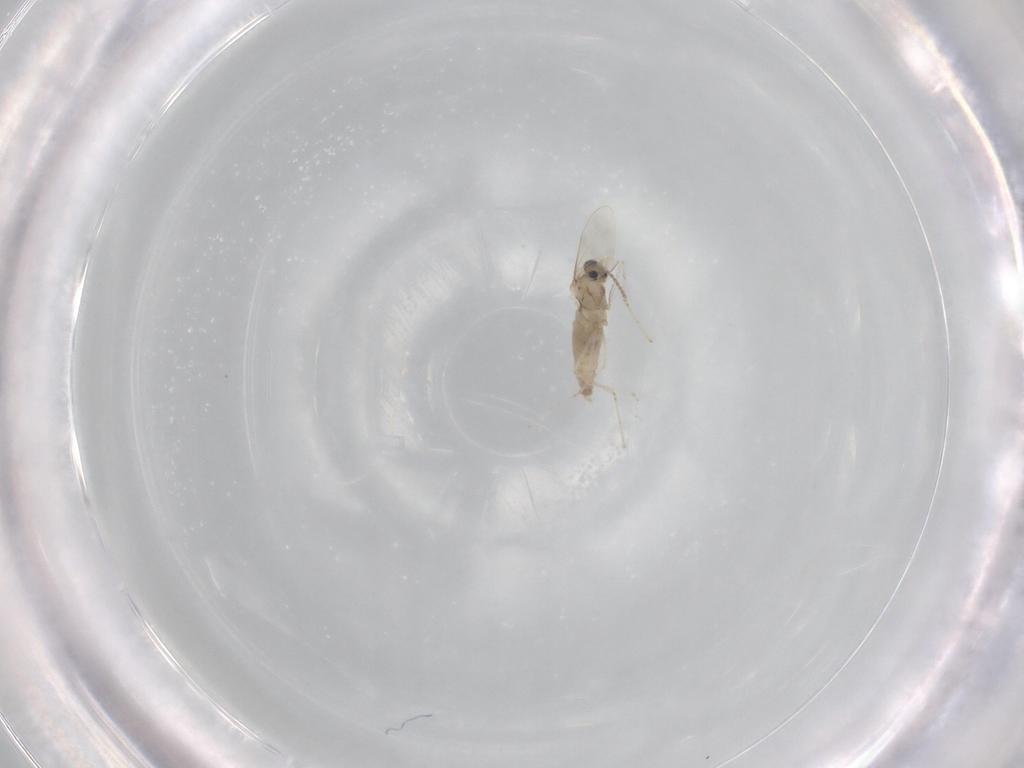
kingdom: Animalia
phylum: Arthropoda
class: Insecta
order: Diptera
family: Cecidomyiidae
